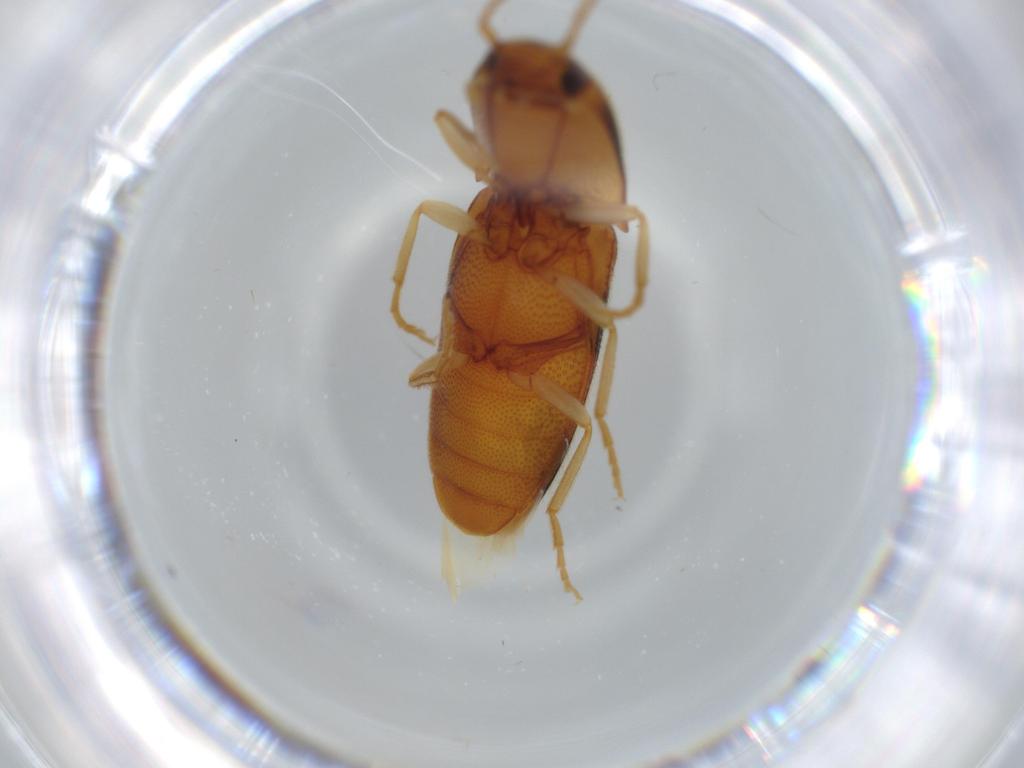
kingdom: Animalia
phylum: Arthropoda
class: Insecta
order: Coleoptera
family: Elateridae
